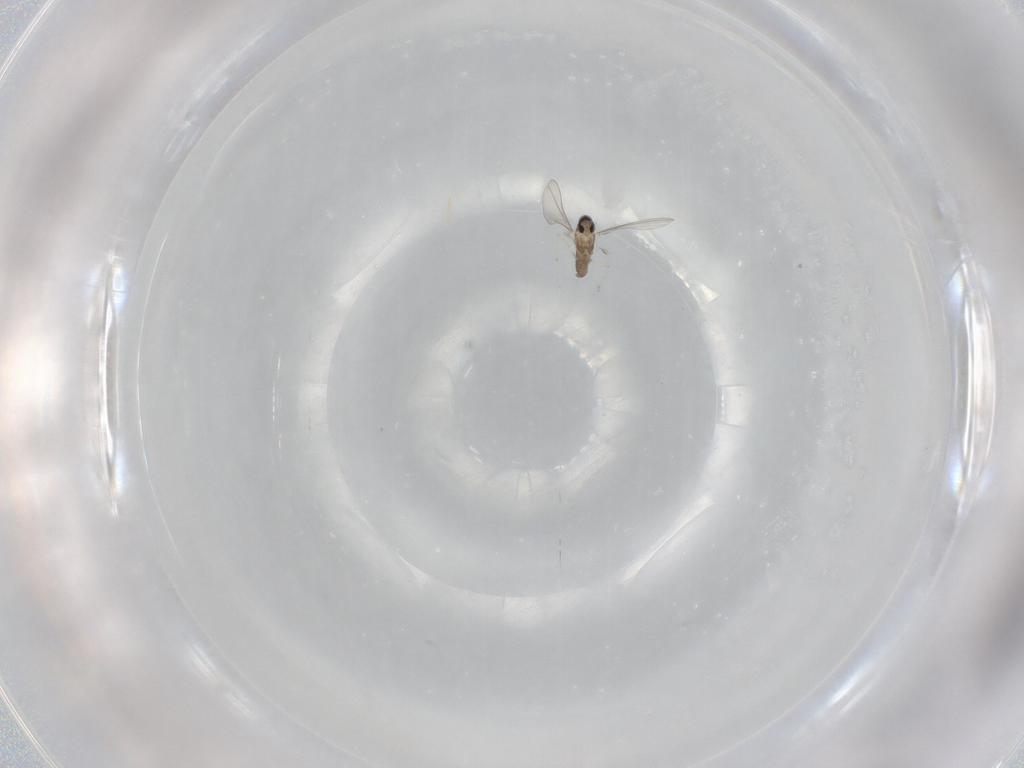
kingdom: Animalia
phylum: Arthropoda
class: Insecta
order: Diptera
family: Cecidomyiidae
